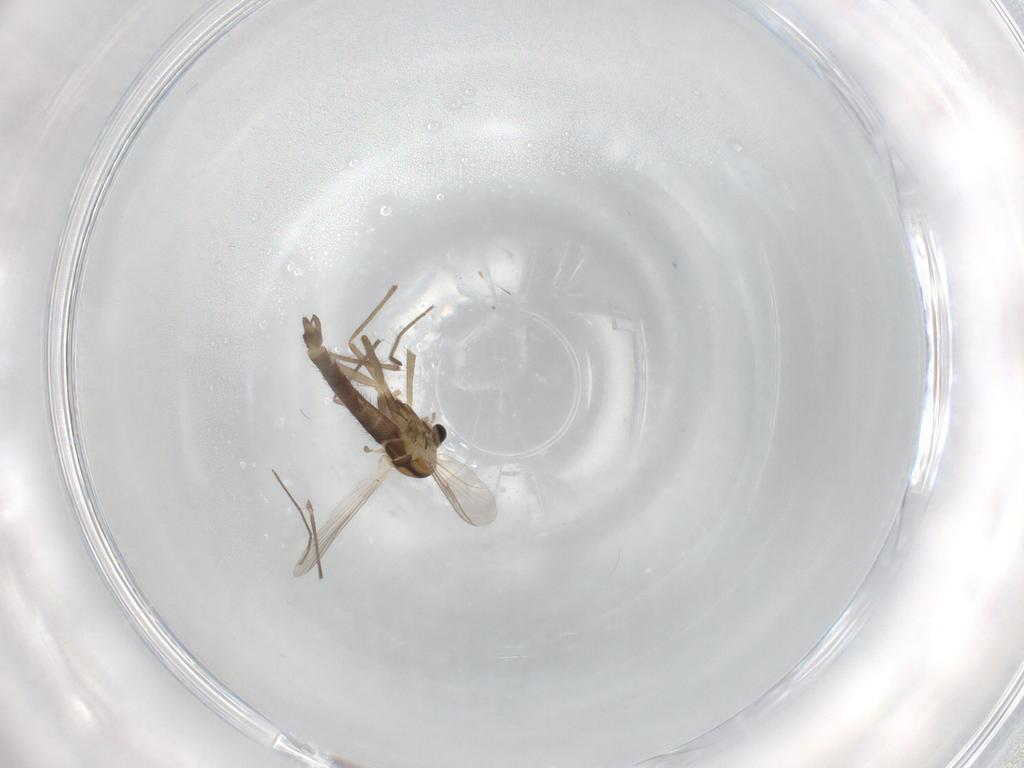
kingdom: Animalia
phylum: Arthropoda
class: Insecta
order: Diptera
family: Chironomidae
